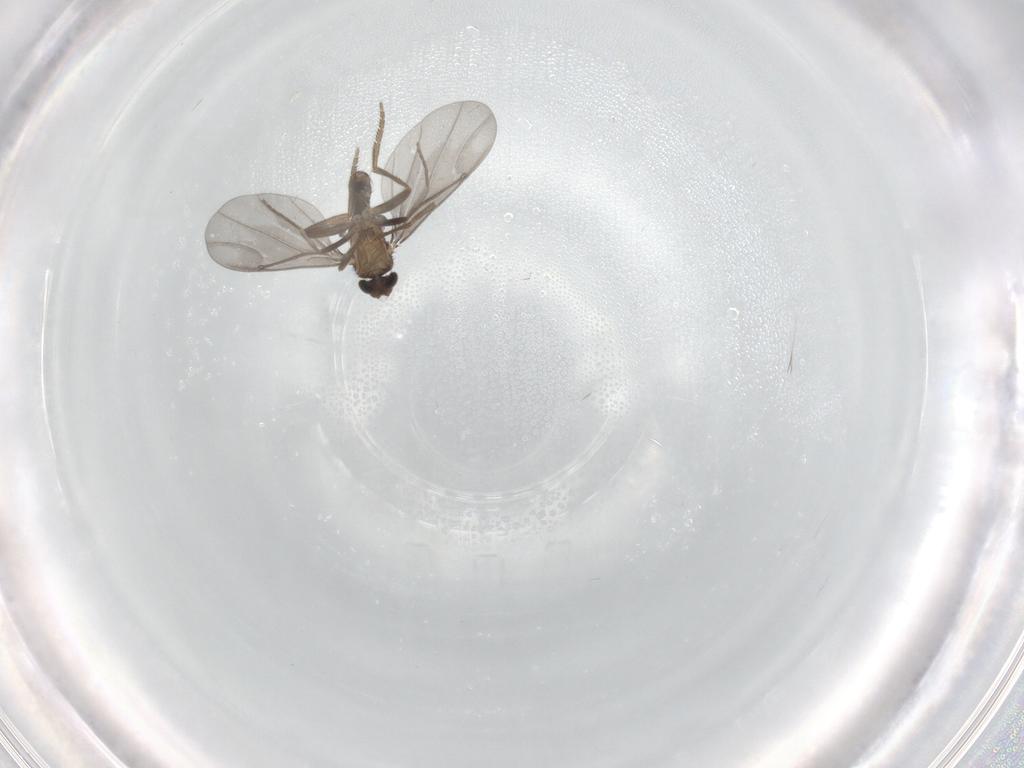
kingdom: Animalia
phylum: Arthropoda
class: Insecta
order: Diptera
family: Phoridae
